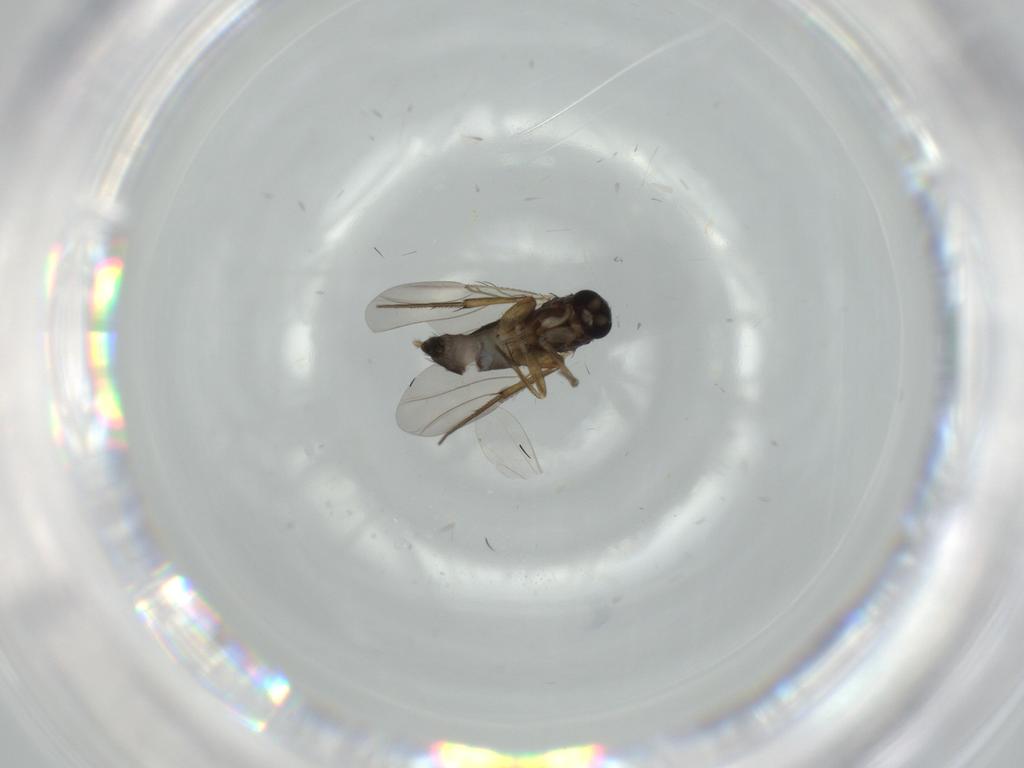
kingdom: Animalia
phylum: Arthropoda
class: Insecta
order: Diptera
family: Phoridae
